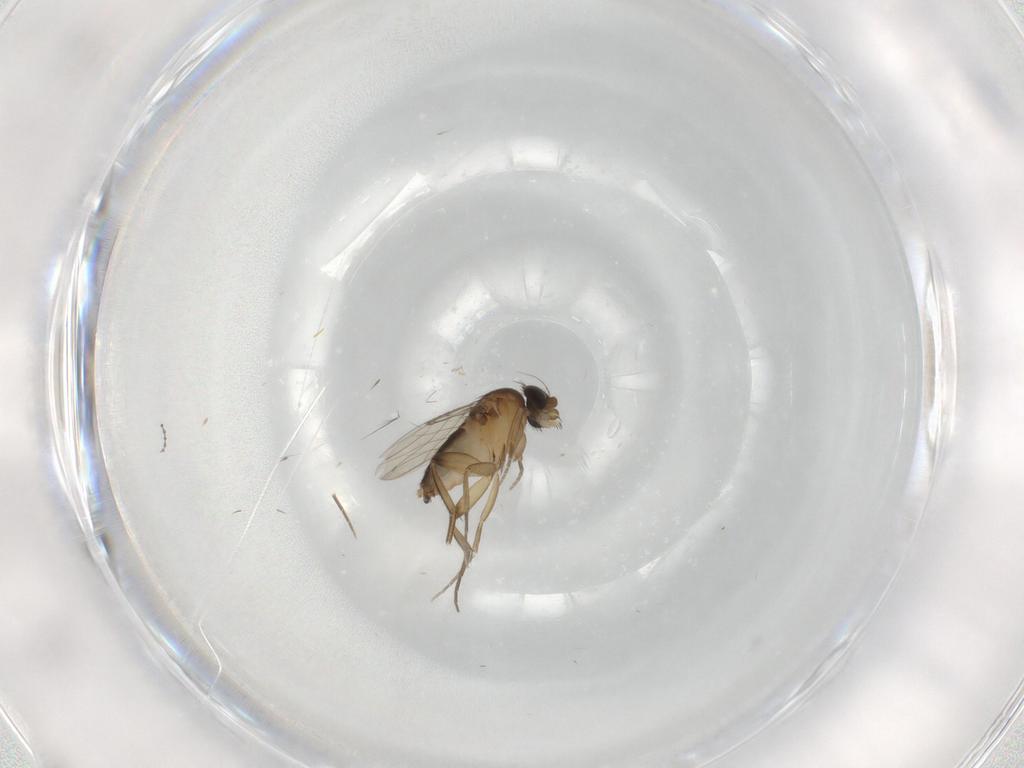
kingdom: Animalia
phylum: Arthropoda
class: Insecta
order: Diptera
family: Phoridae
